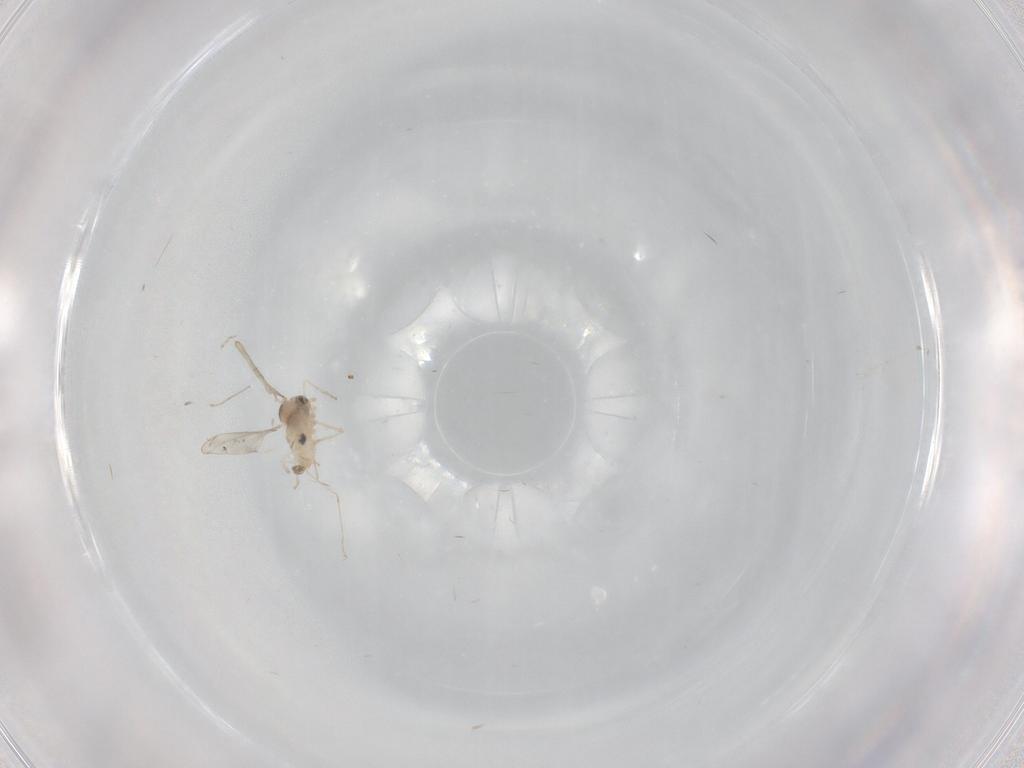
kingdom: Animalia
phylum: Arthropoda
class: Insecta
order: Diptera
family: Cecidomyiidae
